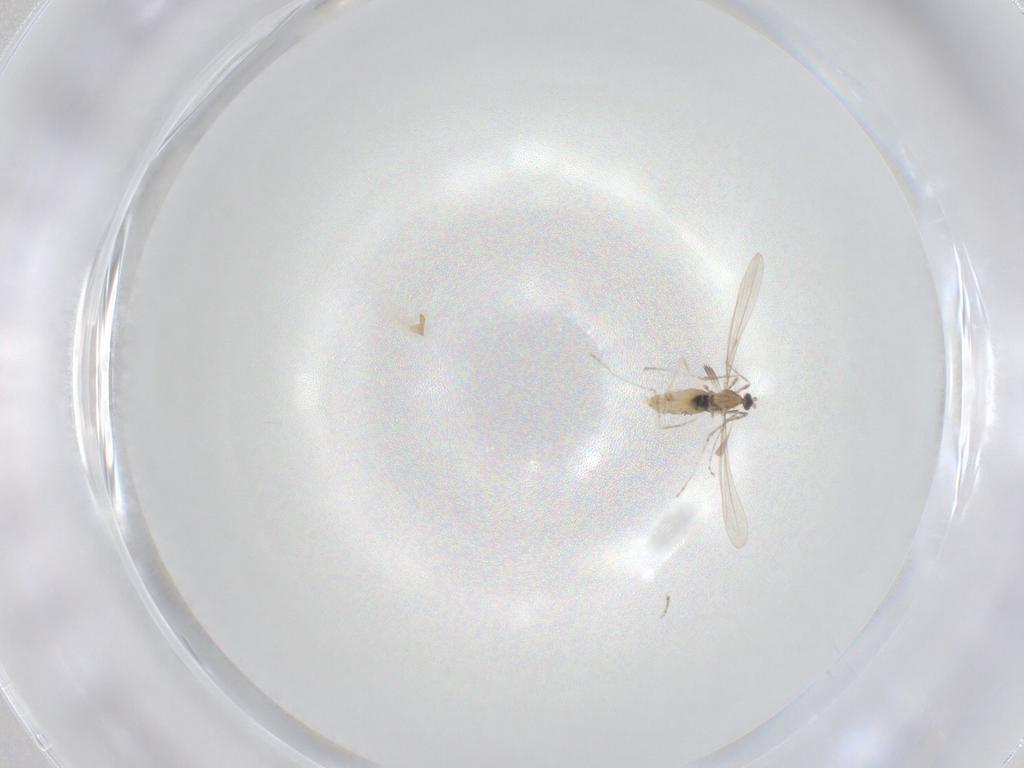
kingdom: Animalia
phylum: Arthropoda
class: Insecta
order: Diptera
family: Cecidomyiidae
